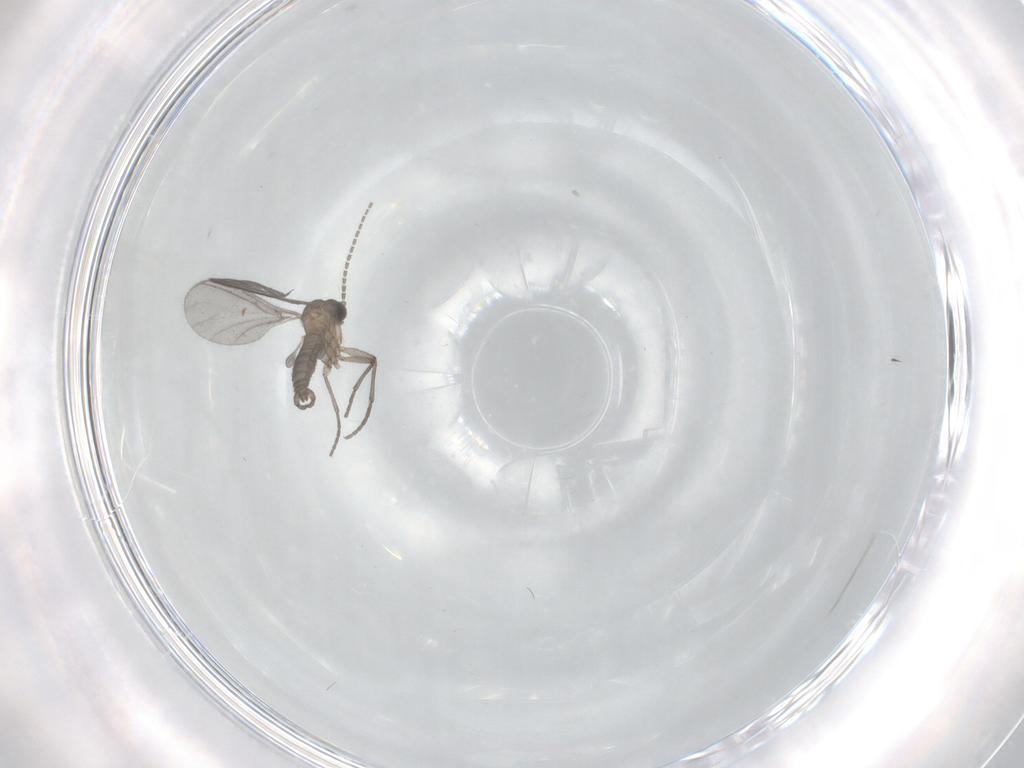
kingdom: Animalia
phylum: Arthropoda
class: Insecta
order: Diptera
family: Sciaridae
